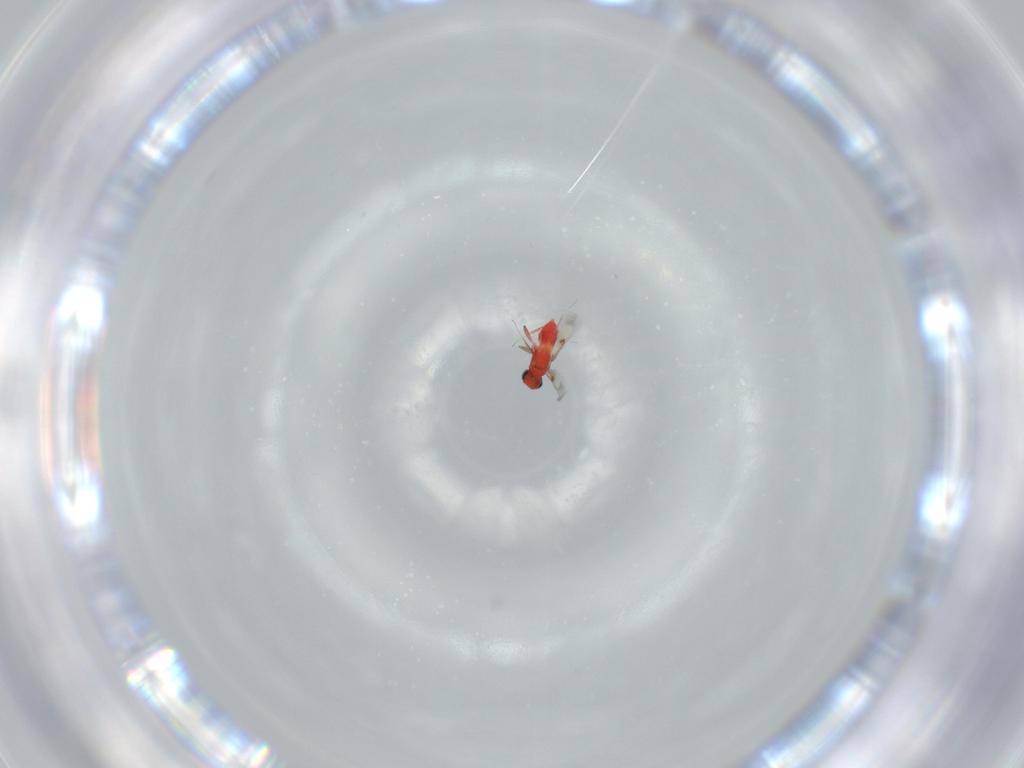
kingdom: Animalia
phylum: Arthropoda
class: Insecta
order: Hymenoptera
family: Trichogrammatidae
